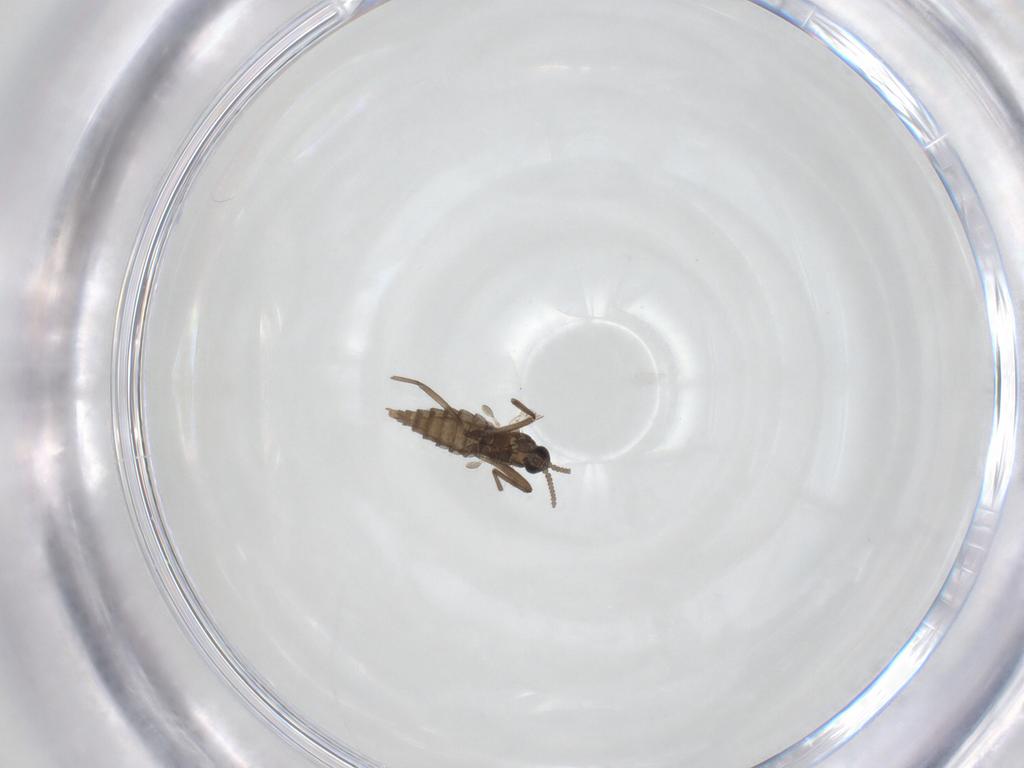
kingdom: Animalia
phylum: Arthropoda
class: Insecta
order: Diptera
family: Cecidomyiidae
